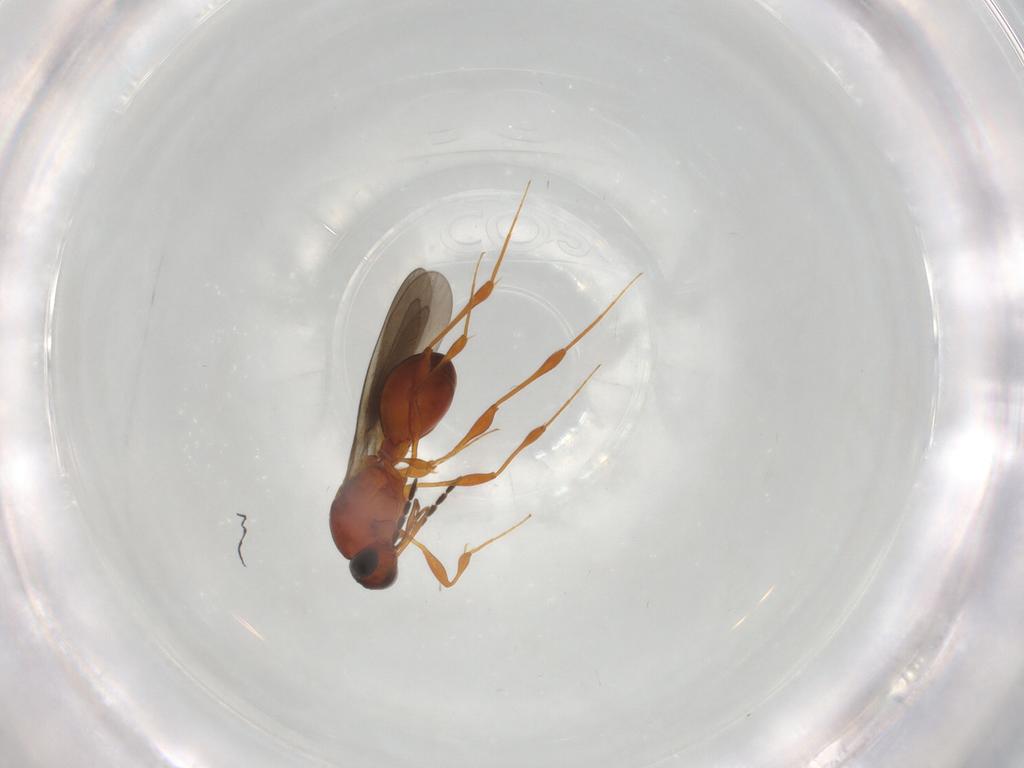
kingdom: Animalia
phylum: Arthropoda
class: Insecta
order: Hymenoptera
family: Platygastridae
